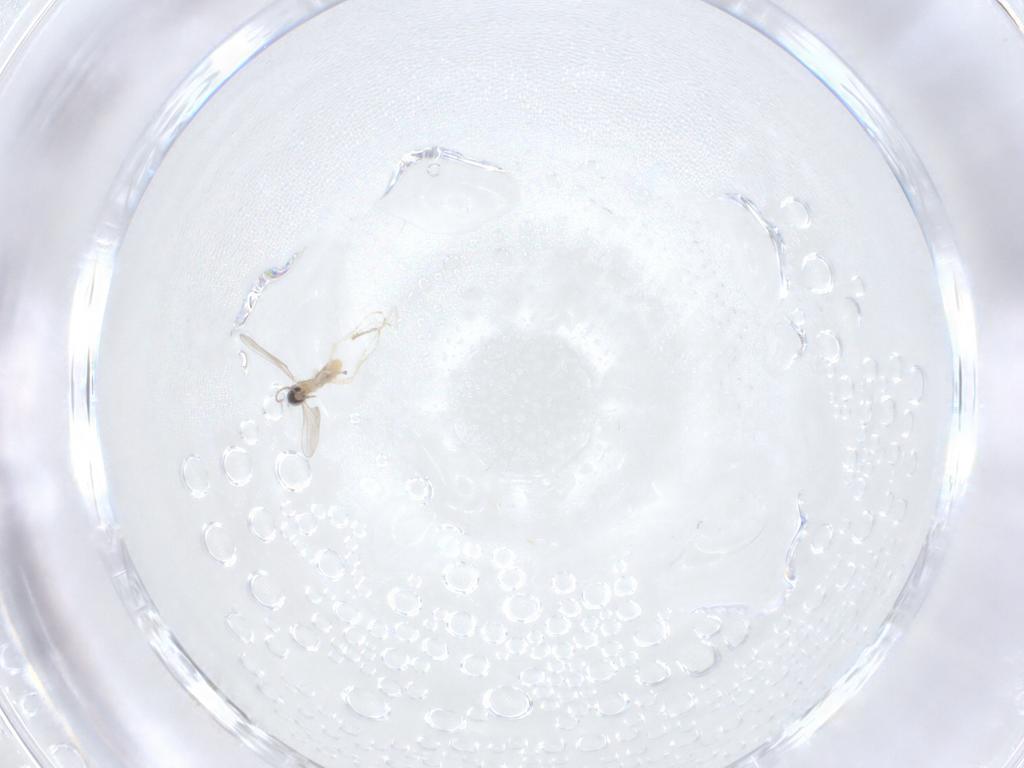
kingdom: Animalia
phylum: Arthropoda
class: Insecta
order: Diptera
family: Cecidomyiidae
